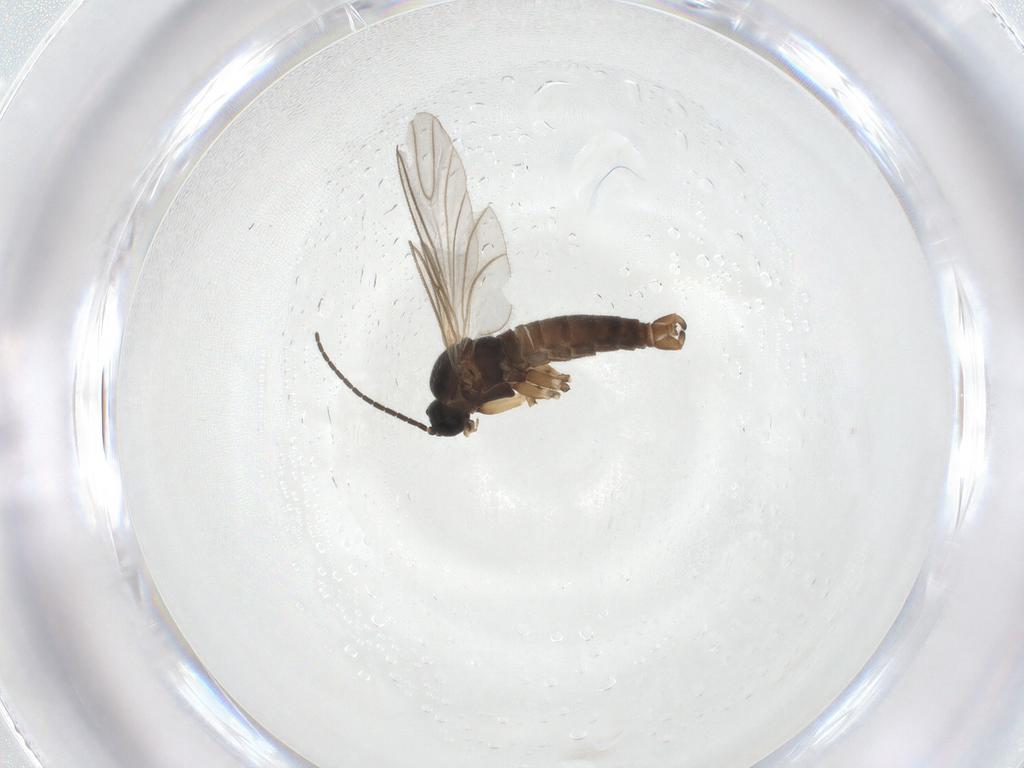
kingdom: Animalia
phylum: Arthropoda
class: Insecta
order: Diptera
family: Sciaridae
